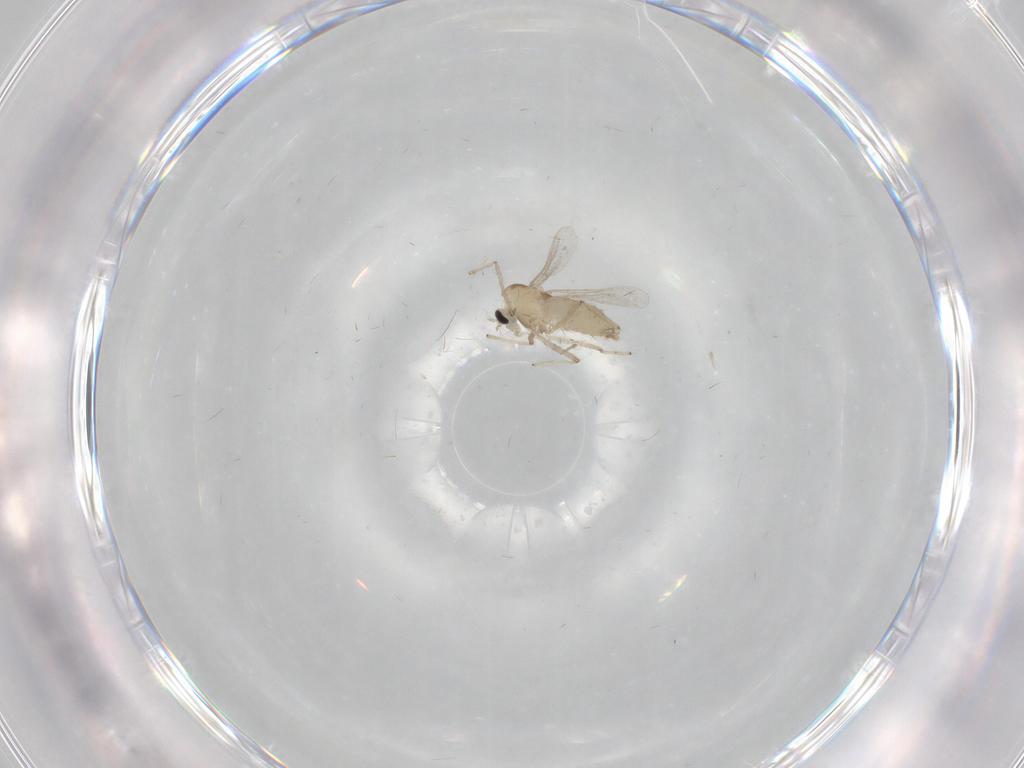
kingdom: Animalia
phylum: Arthropoda
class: Insecta
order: Diptera
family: Chironomidae
